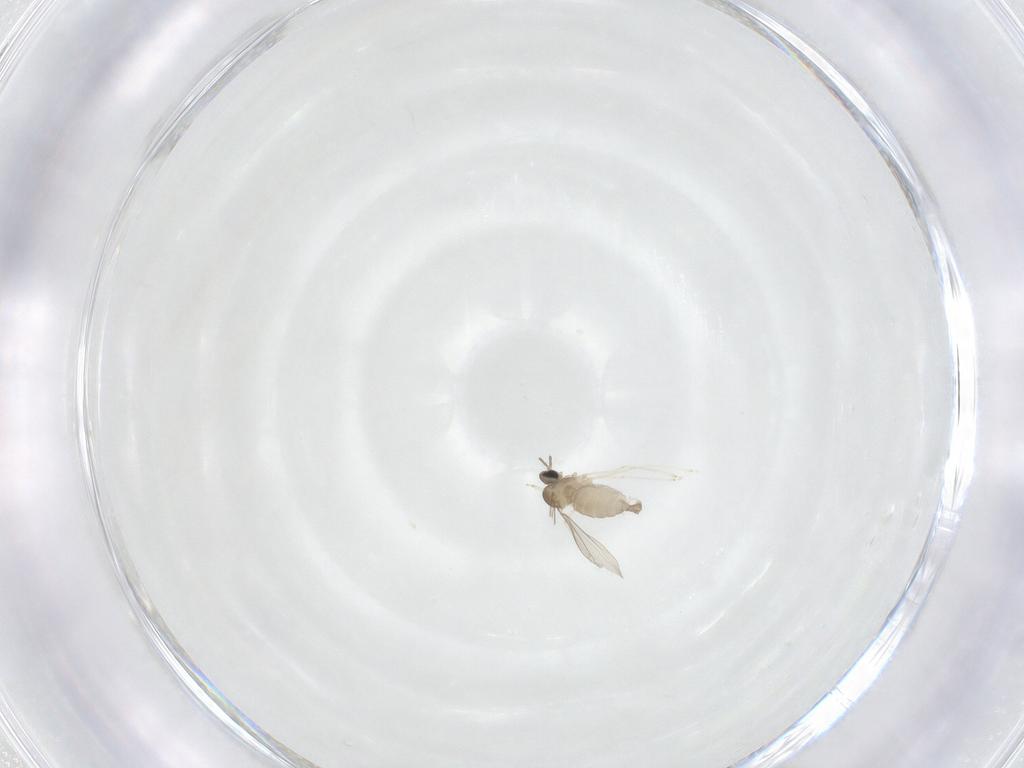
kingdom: Animalia
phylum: Arthropoda
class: Insecta
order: Diptera
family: Cecidomyiidae
